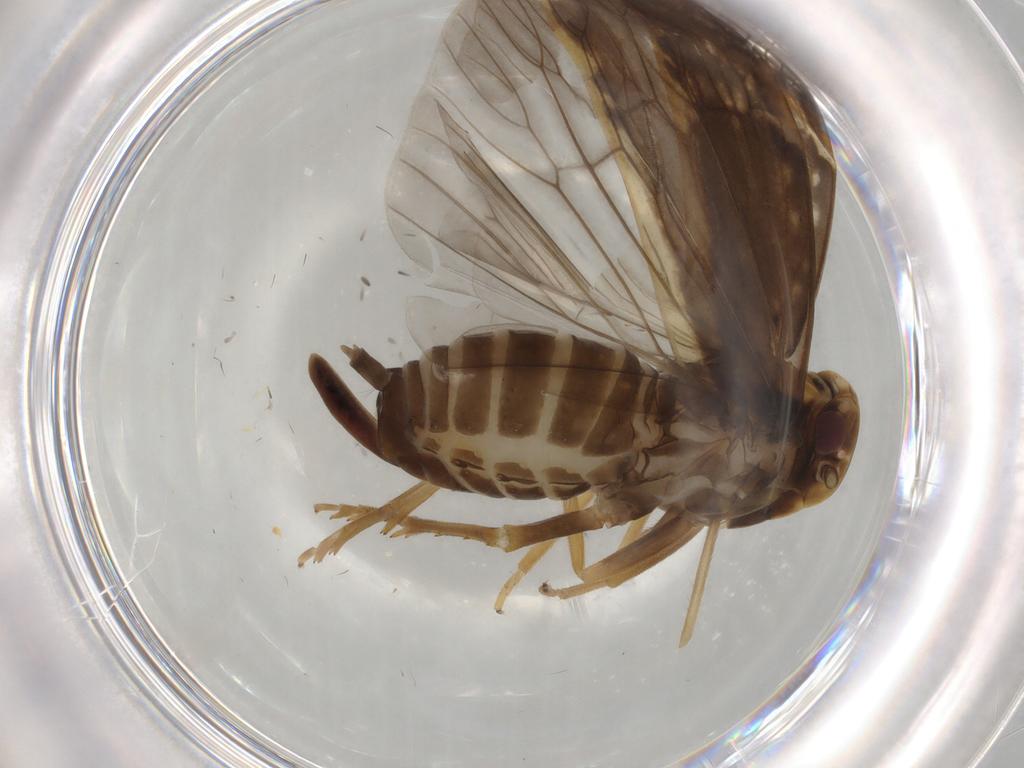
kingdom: Animalia
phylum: Arthropoda
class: Insecta
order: Hemiptera
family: Cixiidae
